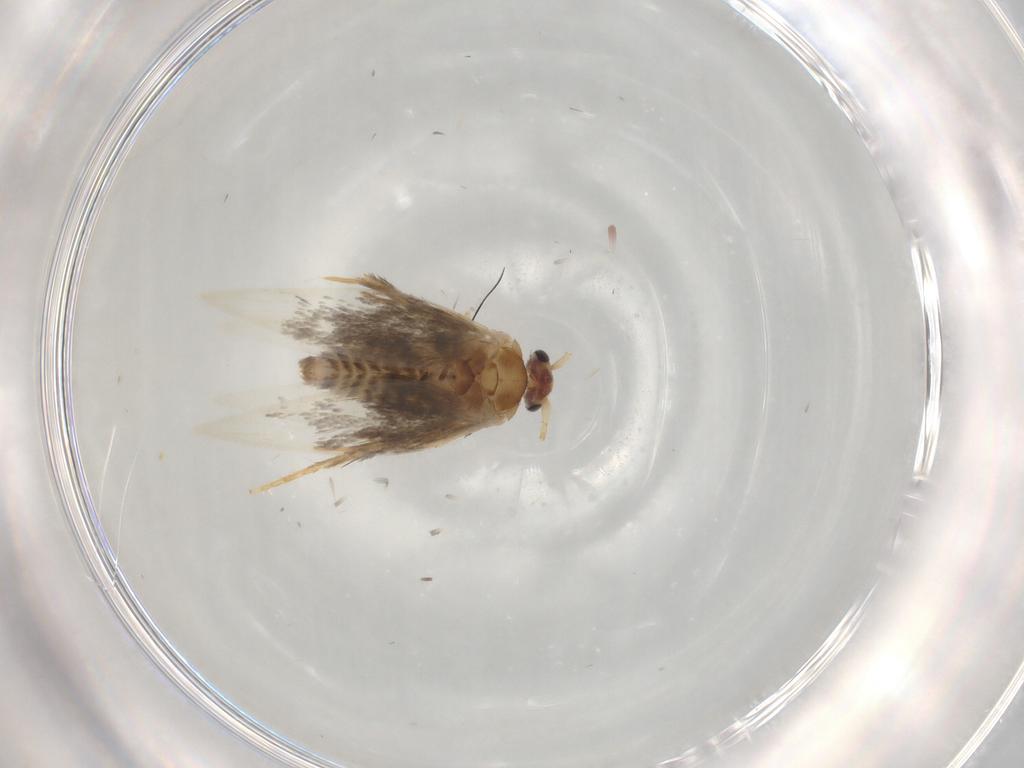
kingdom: Animalia
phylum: Arthropoda
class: Insecta
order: Lepidoptera
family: Nepticulidae
